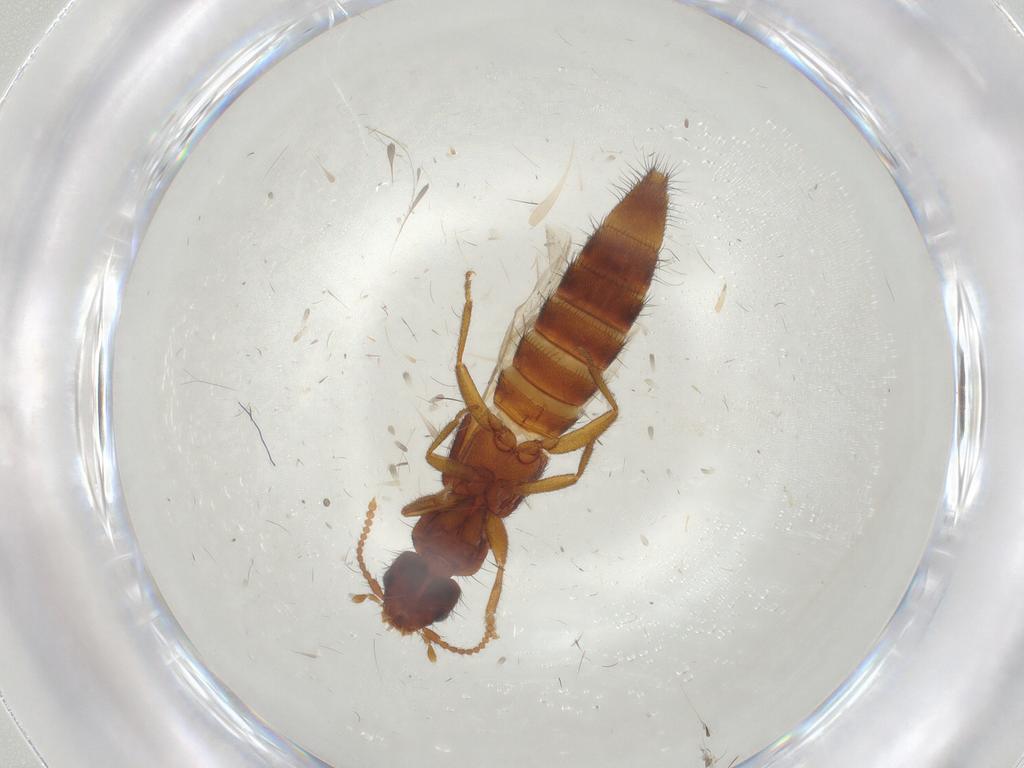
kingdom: Animalia
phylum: Arthropoda
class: Insecta
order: Coleoptera
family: Staphylinidae
